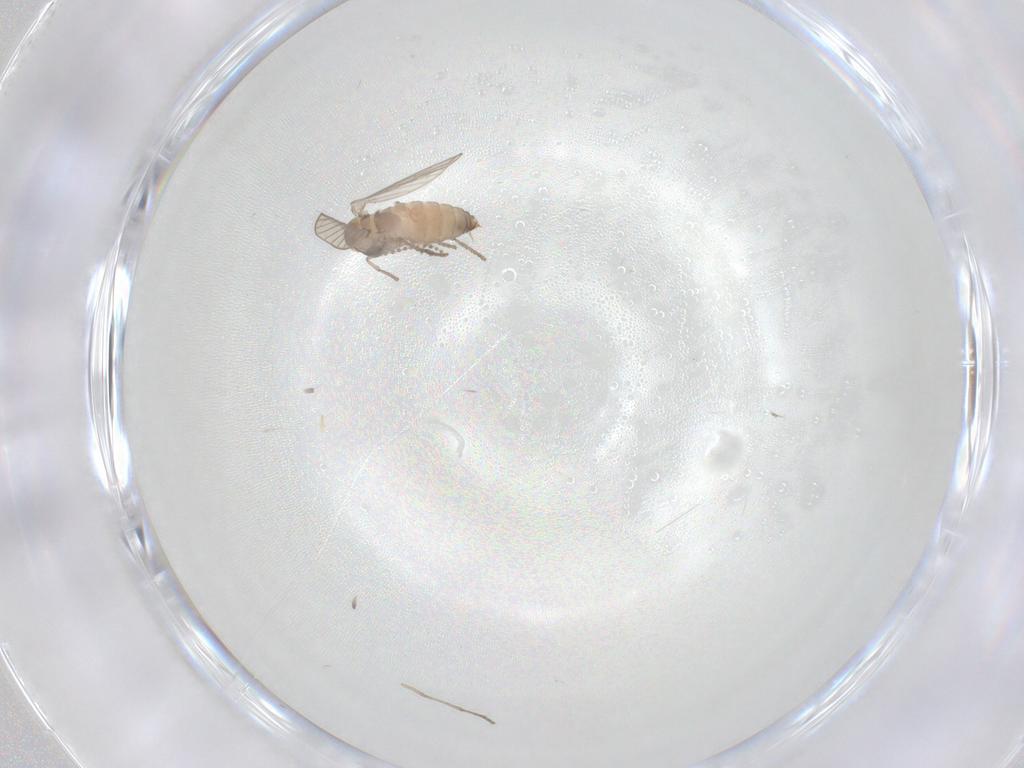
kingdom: Animalia
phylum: Arthropoda
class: Insecta
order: Diptera
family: Psychodidae
